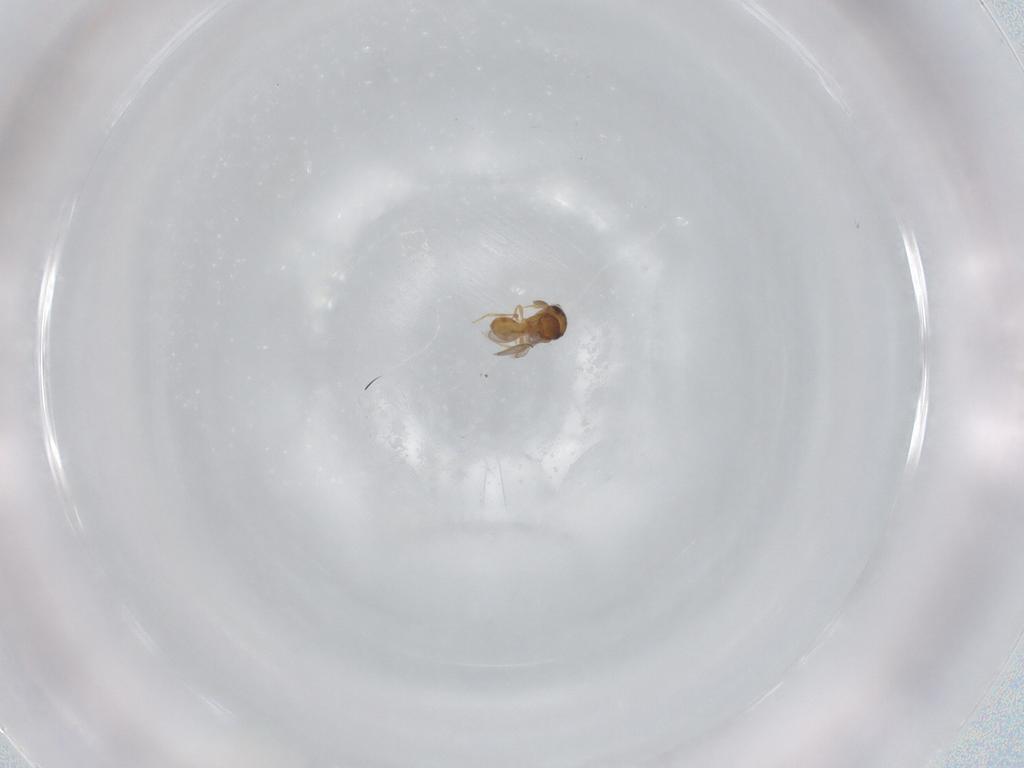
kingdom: Animalia
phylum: Arthropoda
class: Insecta
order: Hymenoptera
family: Scelionidae
